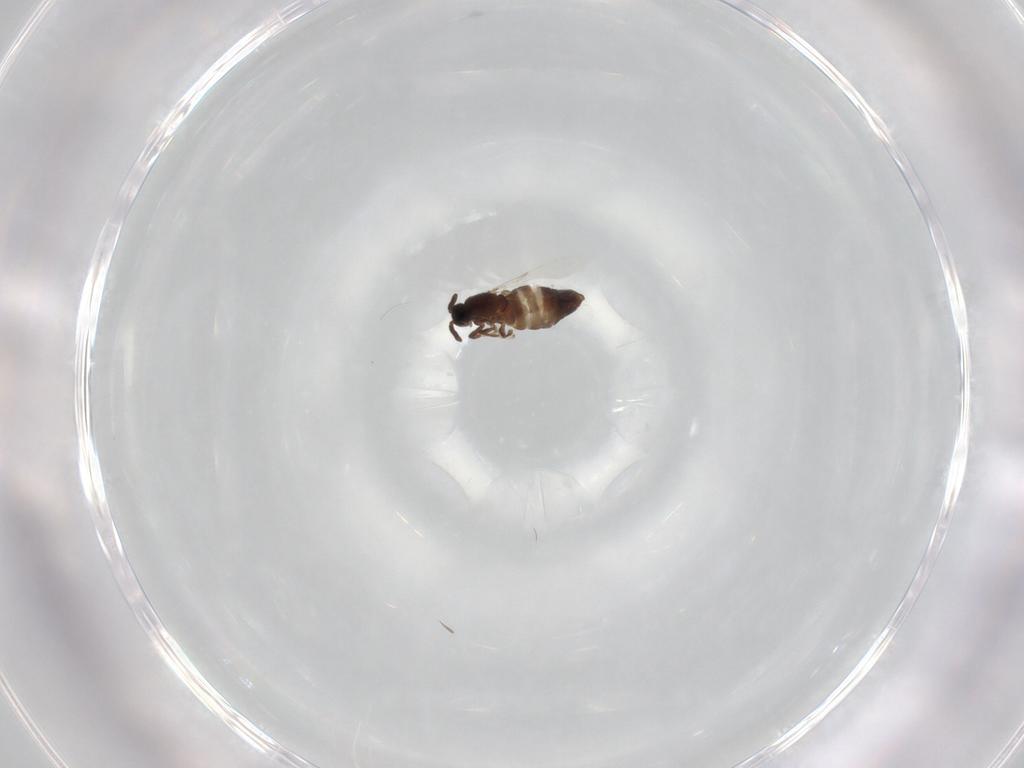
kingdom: Animalia
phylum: Arthropoda
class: Insecta
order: Diptera
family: Scatopsidae
